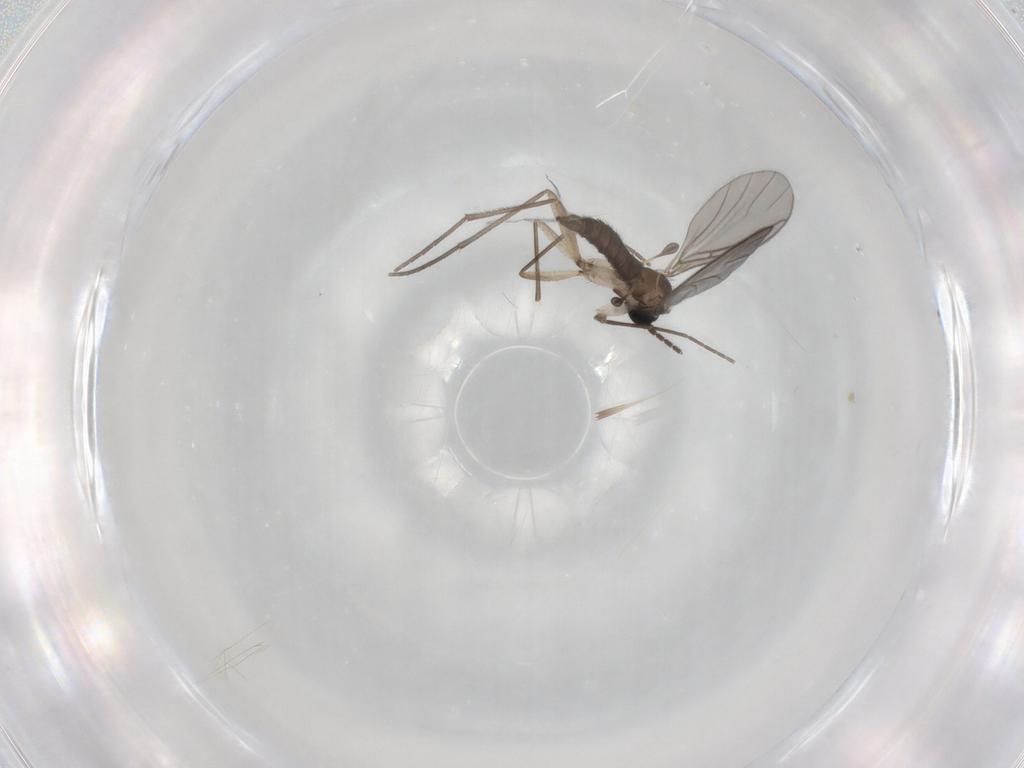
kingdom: Animalia
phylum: Arthropoda
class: Insecta
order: Diptera
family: Sciaridae
